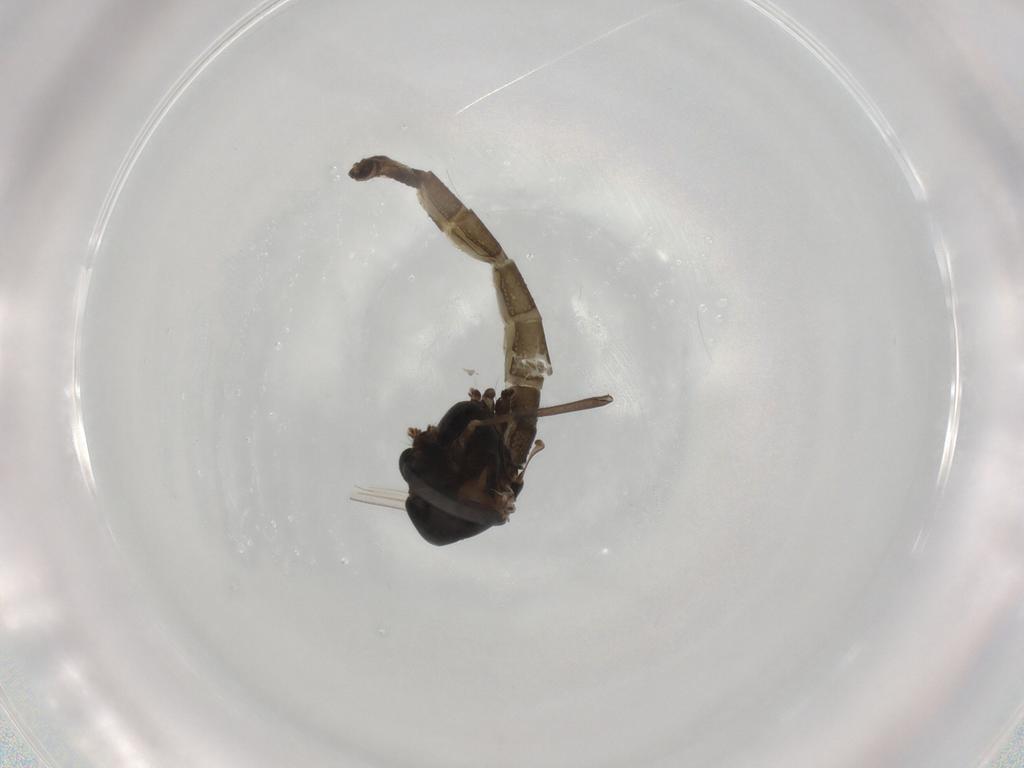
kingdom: Animalia
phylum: Arthropoda
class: Insecta
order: Diptera
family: Chironomidae
